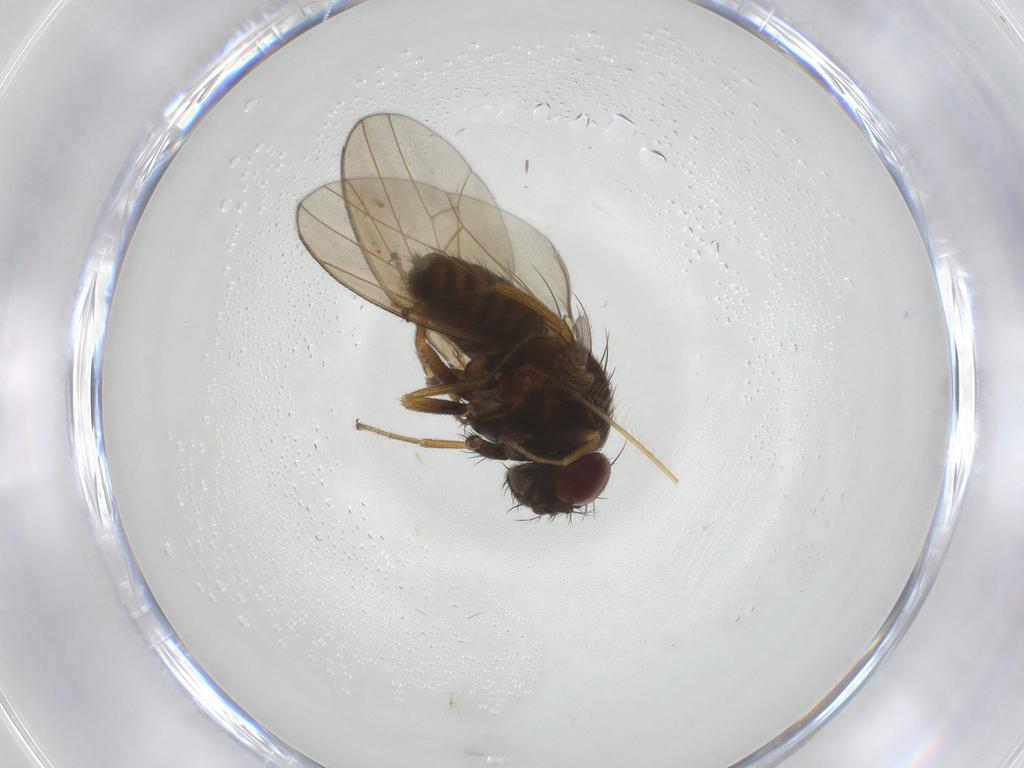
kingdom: Animalia
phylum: Arthropoda
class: Insecta
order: Diptera
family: Drosophilidae
